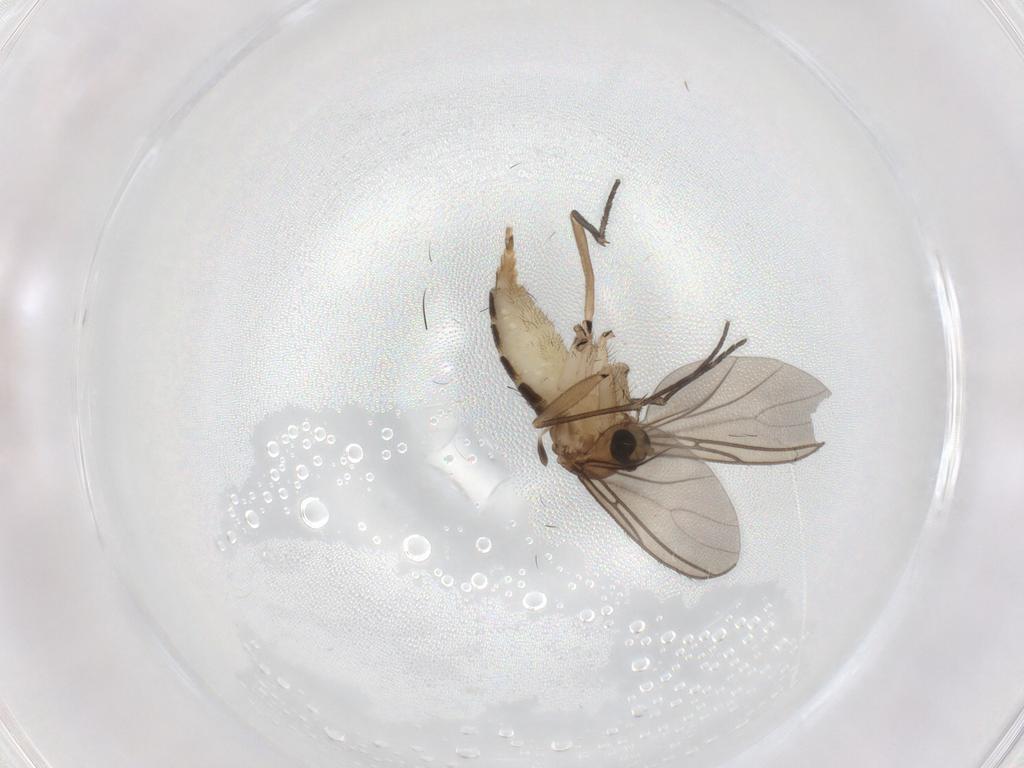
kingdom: Animalia
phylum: Arthropoda
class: Insecta
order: Diptera
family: Sciaridae
